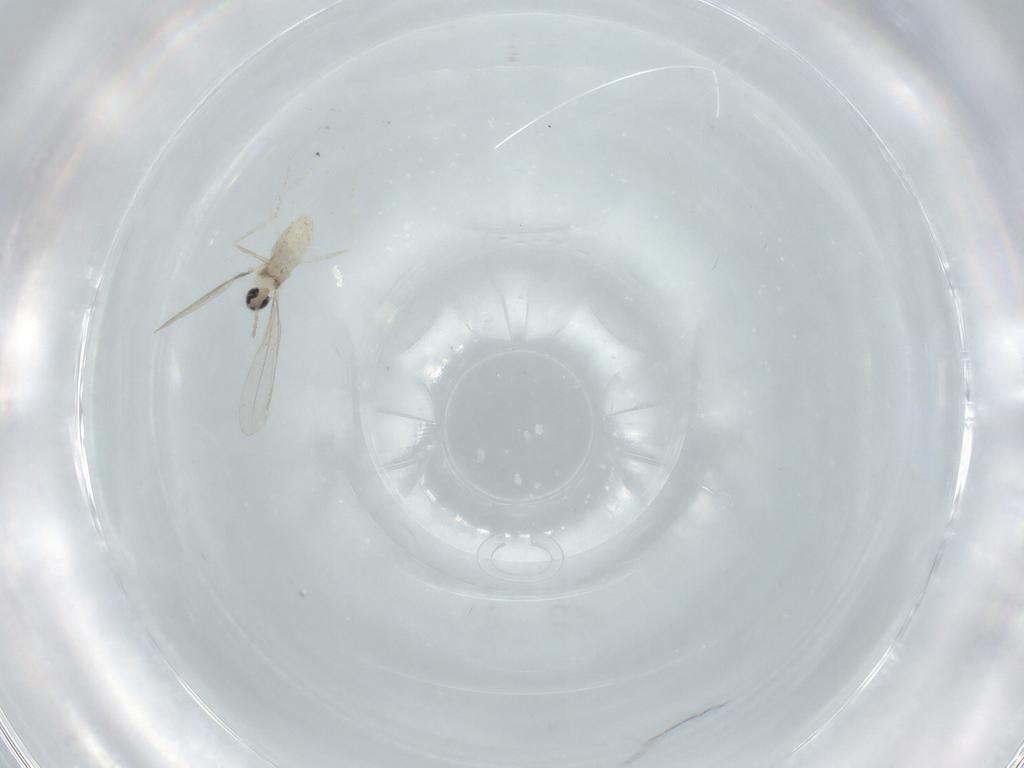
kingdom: Animalia
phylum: Arthropoda
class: Insecta
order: Diptera
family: Cecidomyiidae
